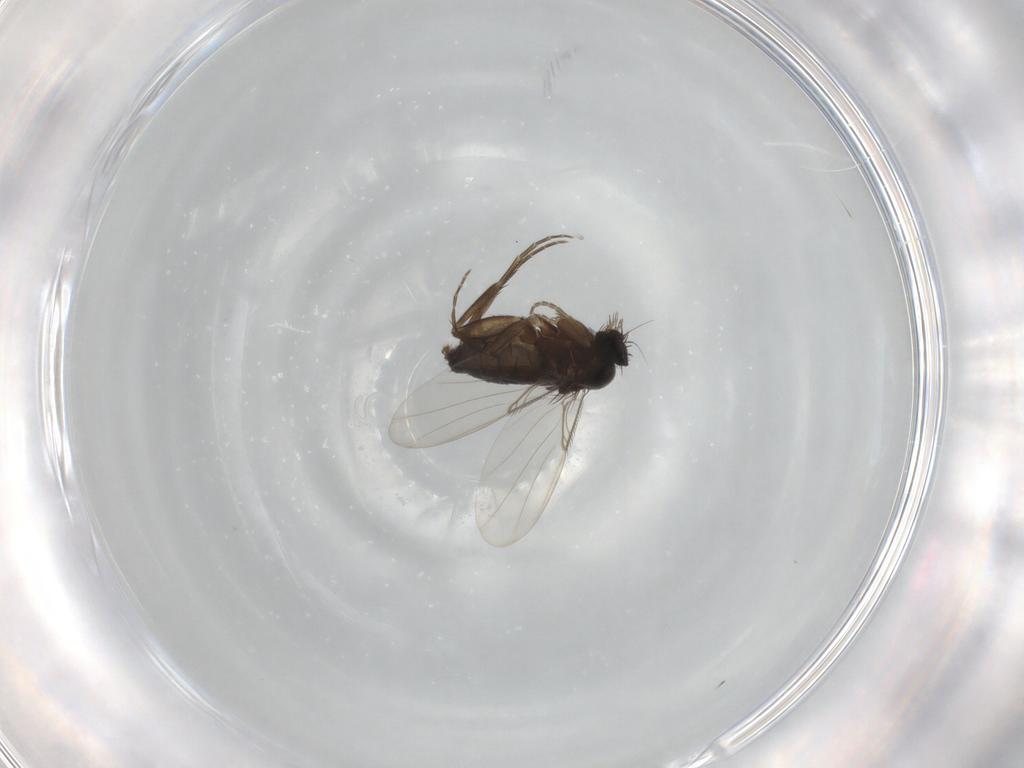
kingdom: Animalia
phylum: Arthropoda
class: Insecta
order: Diptera
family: Phoridae
